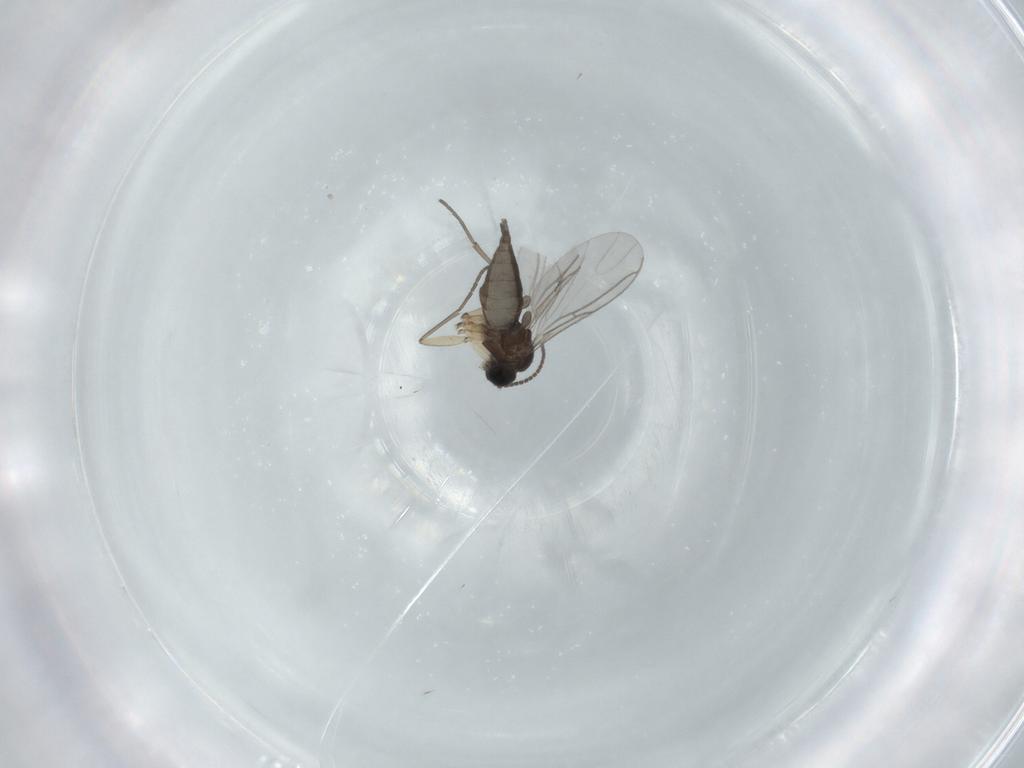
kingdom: Animalia
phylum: Arthropoda
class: Insecta
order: Diptera
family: Sciaridae
